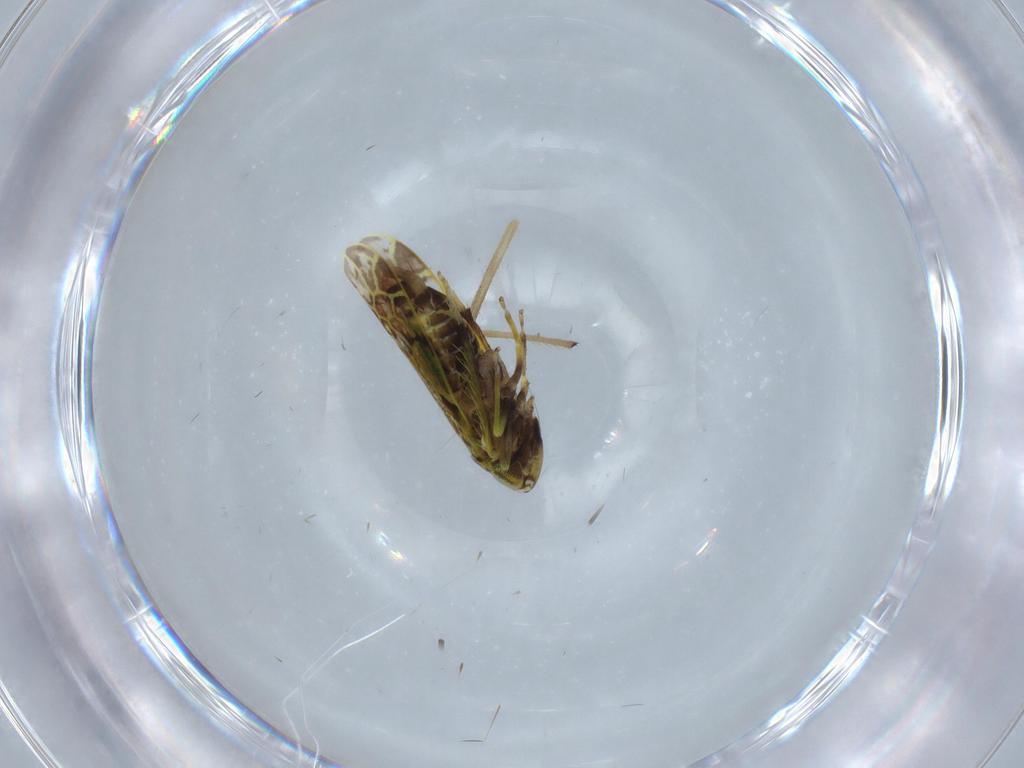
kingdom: Animalia
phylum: Arthropoda
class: Insecta
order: Hemiptera
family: Cicadellidae
